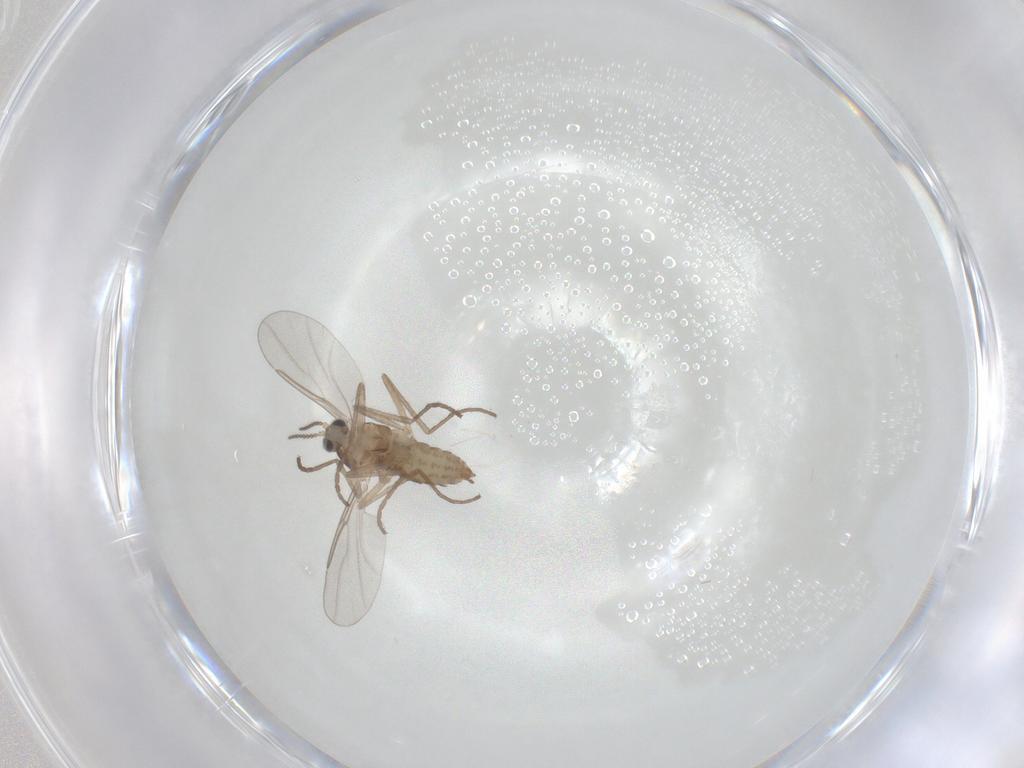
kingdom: Animalia
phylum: Arthropoda
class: Insecta
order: Diptera
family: Cecidomyiidae
